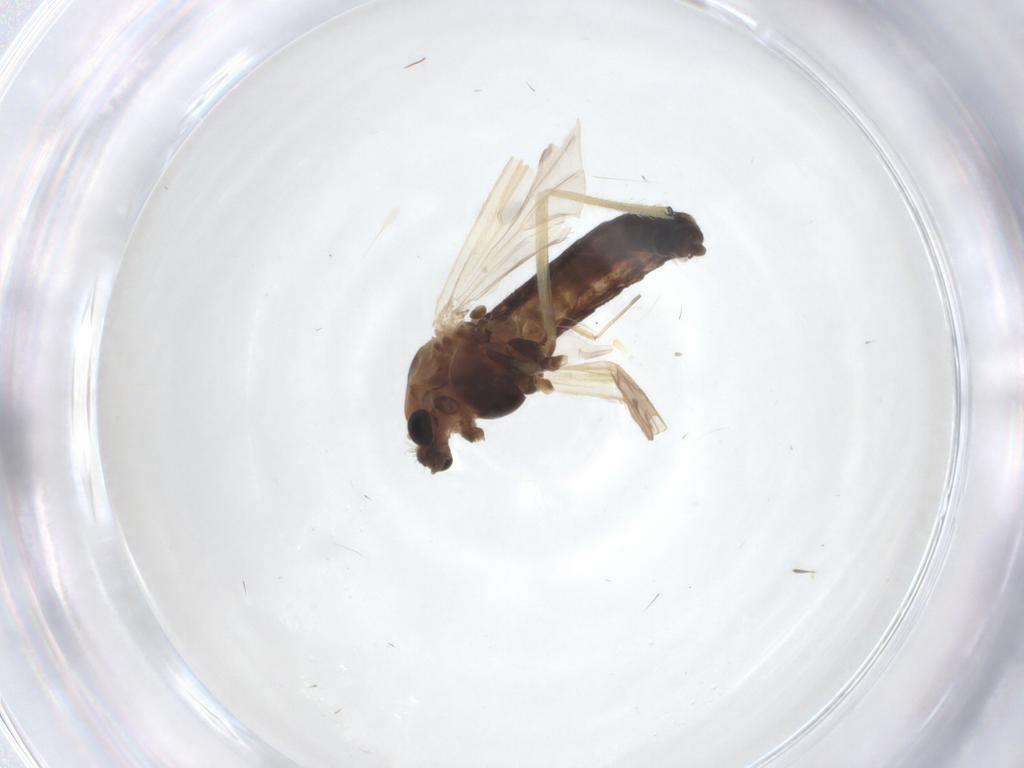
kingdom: Animalia
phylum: Arthropoda
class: Insecta
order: Diptera
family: Chironomidae
